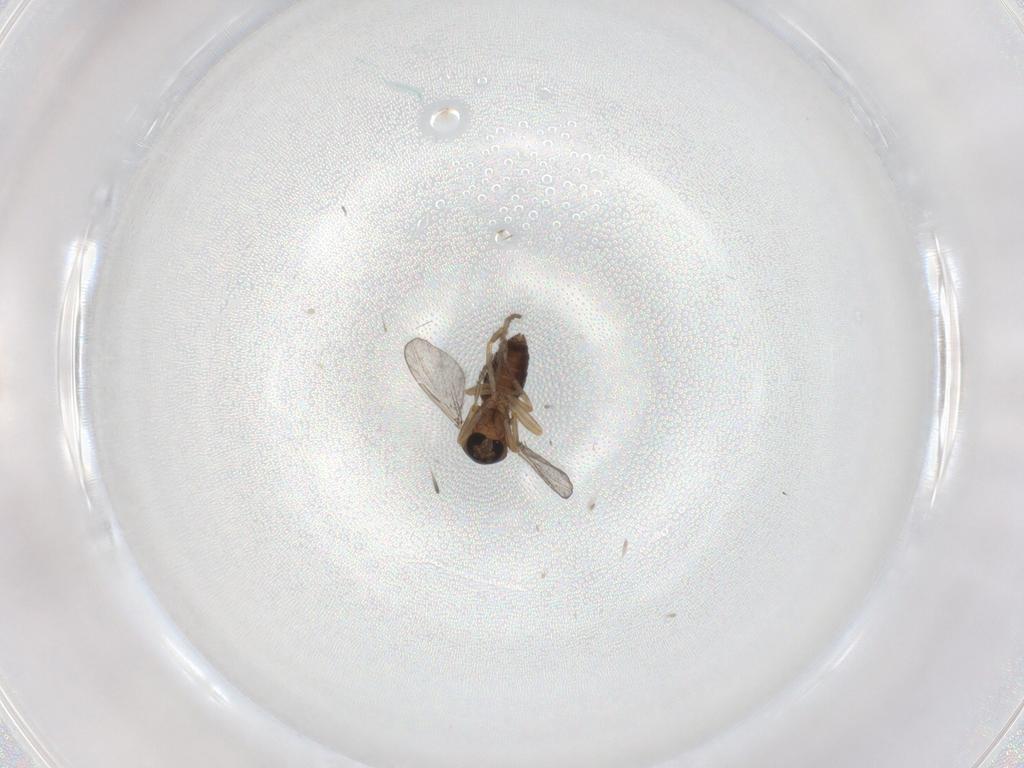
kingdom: Animalia
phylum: Arthropoda
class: Insecta
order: Diptera
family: Ceratopogonidae
